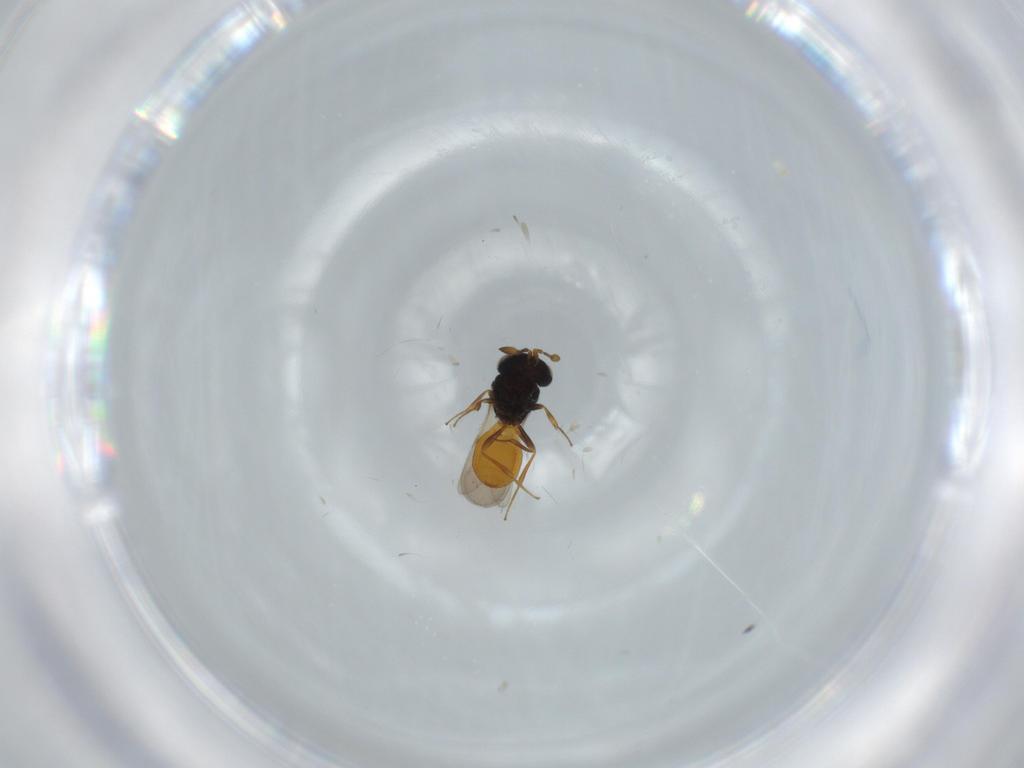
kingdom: Animalia
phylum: Arthropoda
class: Insecta
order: Hymenoptera
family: Scelionidae
